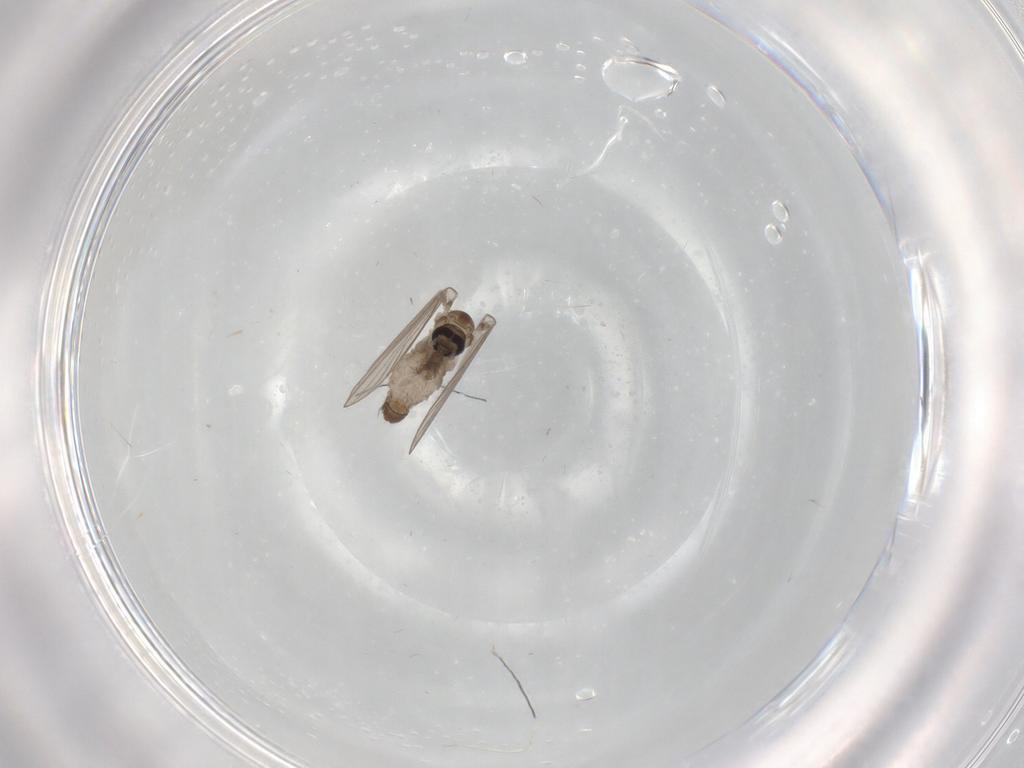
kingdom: Animalia
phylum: Arthropoda
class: Insecta
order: Diptera
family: Psychodidae
